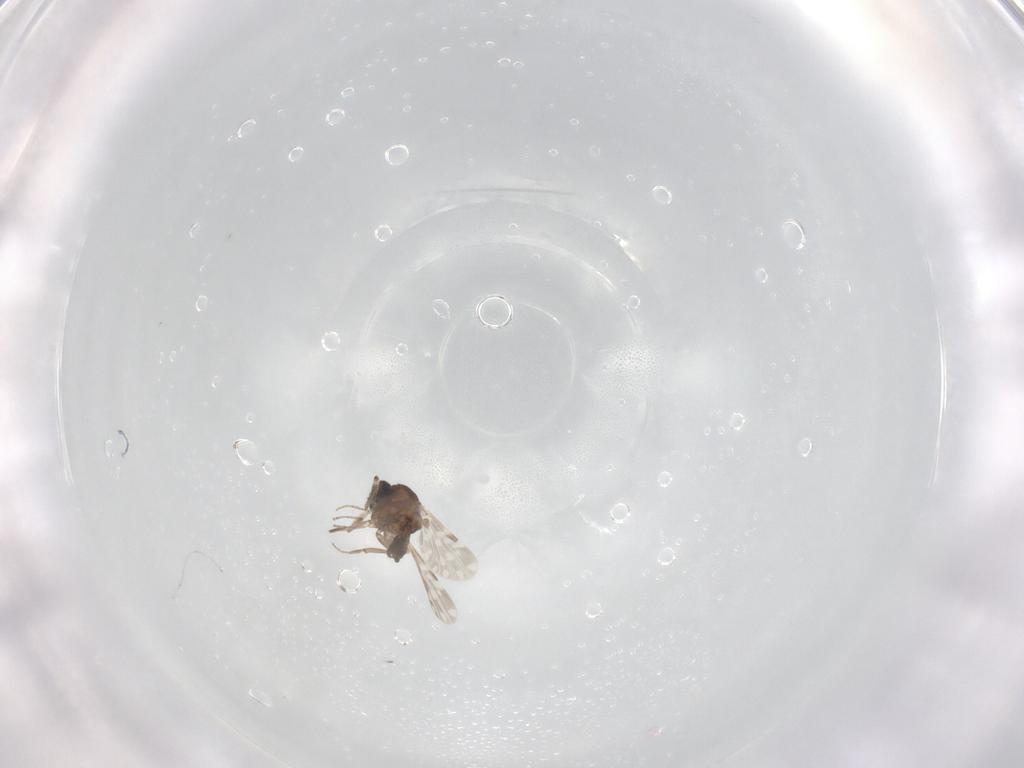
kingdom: Animalia
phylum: Arthropoda
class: Insecta
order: Diptera
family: Ceratopogonidae
